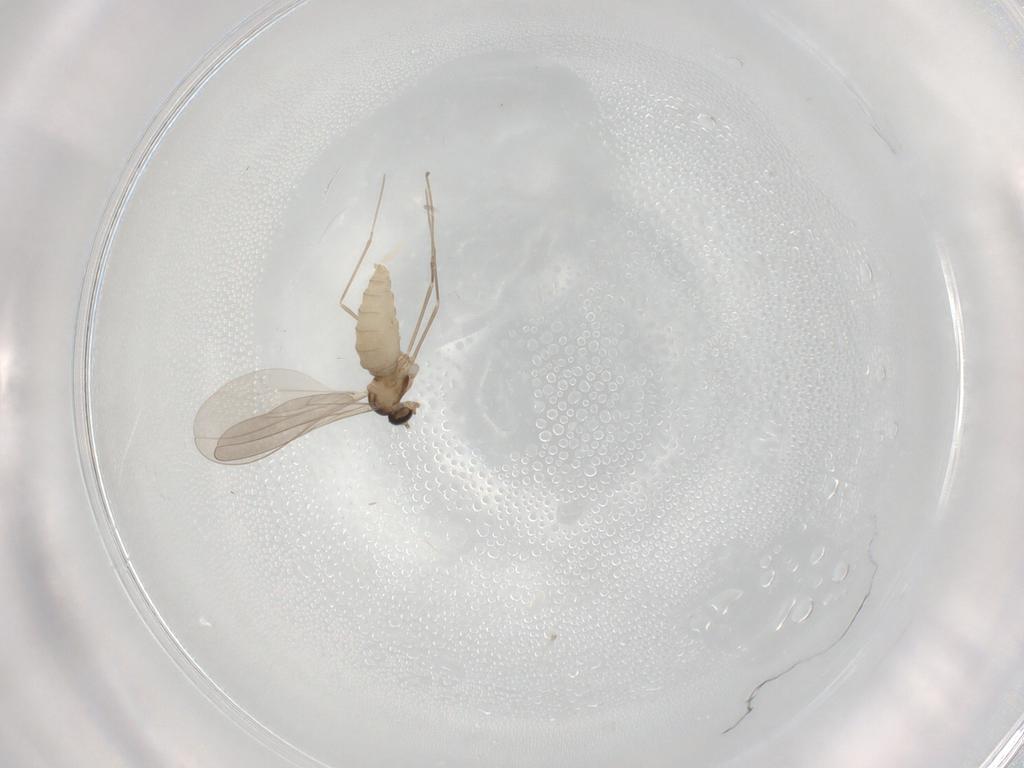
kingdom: Animalia
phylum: Arthropoda
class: Insecta
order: Diptera
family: Cecidomyiidae
